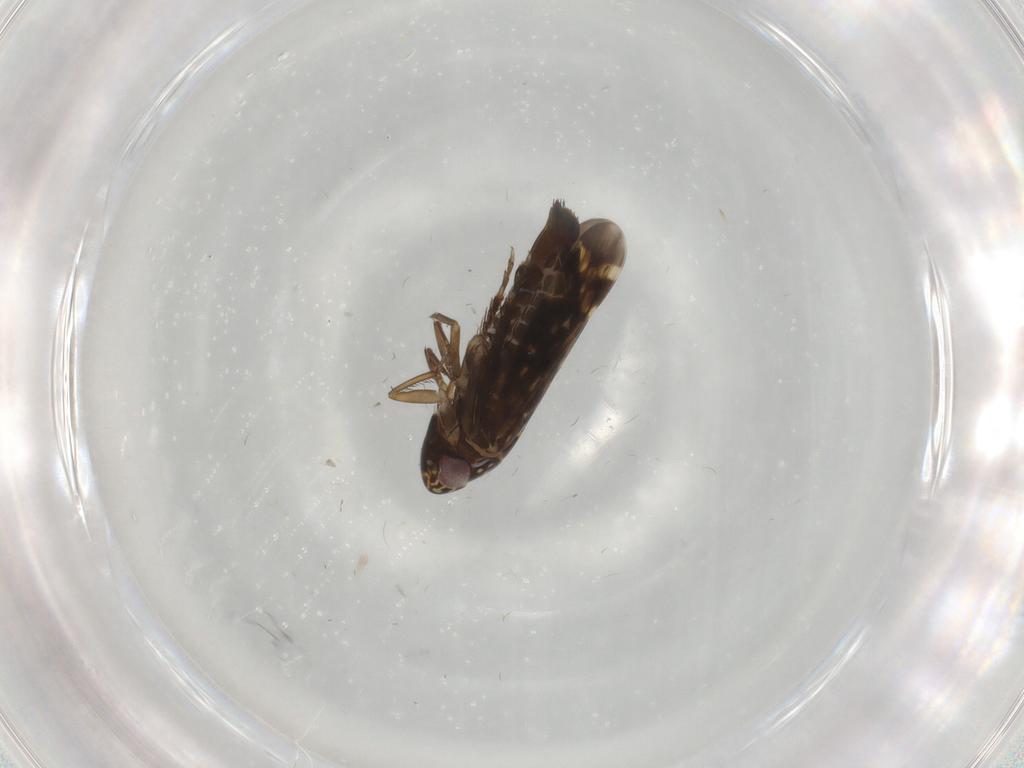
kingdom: Animalia
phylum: Arthropoda
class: Insecta
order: Hemiptera
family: Cicadellidae
